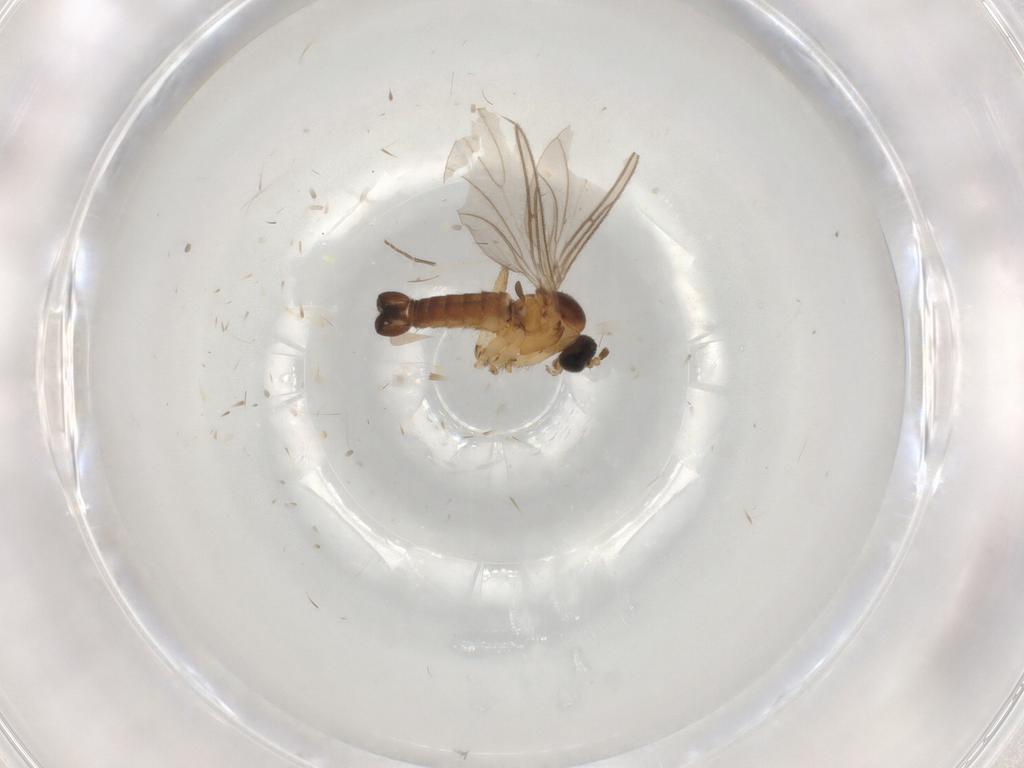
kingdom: Animalia
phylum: Arthropoda
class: Insecta
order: Diptera
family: Sciaridae
